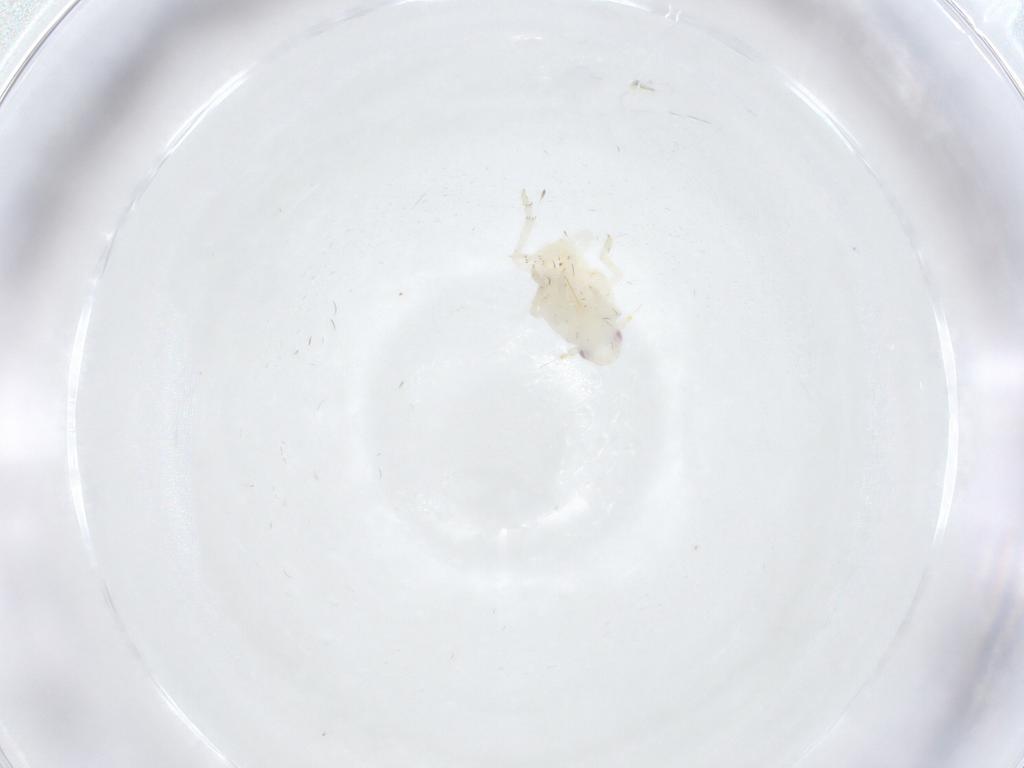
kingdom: Animalia
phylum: Arthropoda
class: Insecta
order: Hemiptera
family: Flatidae
